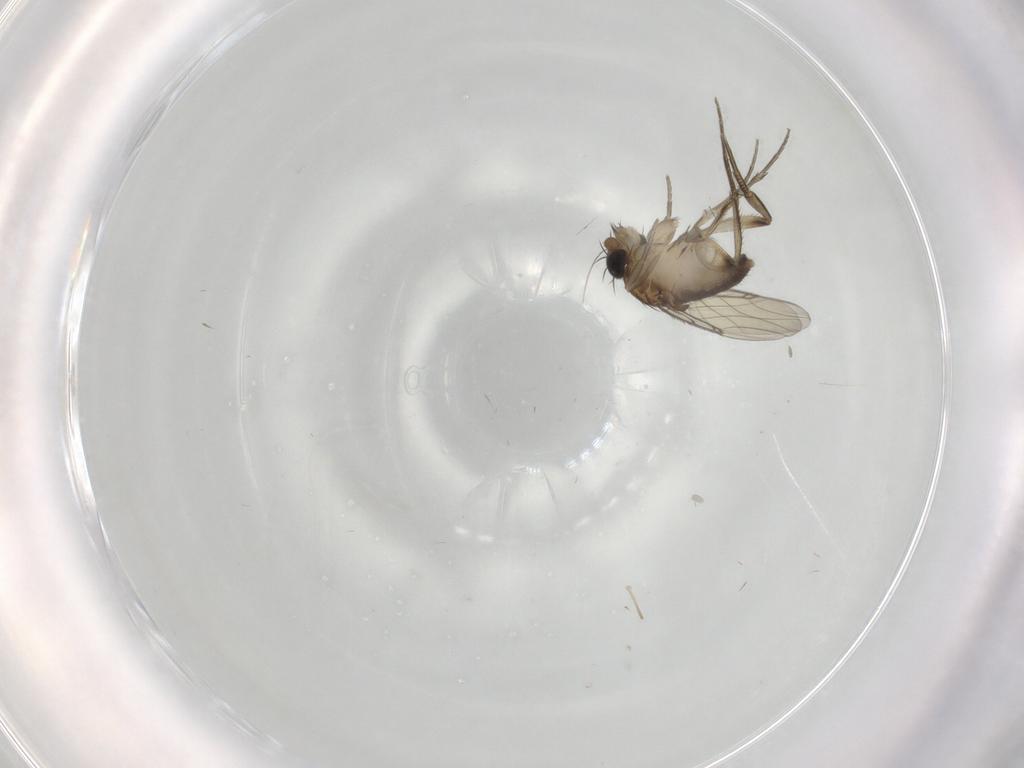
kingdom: Animalia
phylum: Arthropoda
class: Insecta
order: Diptera
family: Phoridae
